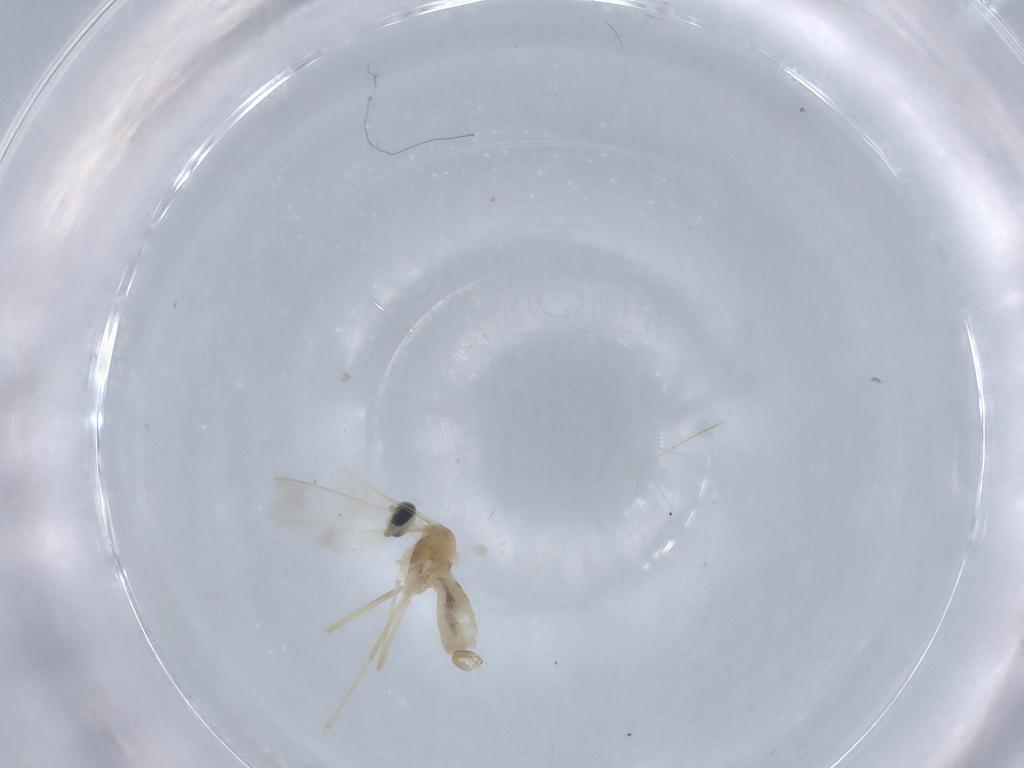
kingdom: Animalia
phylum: Arthropoda
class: Insecta
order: Diptera
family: Cecidomyiidae
